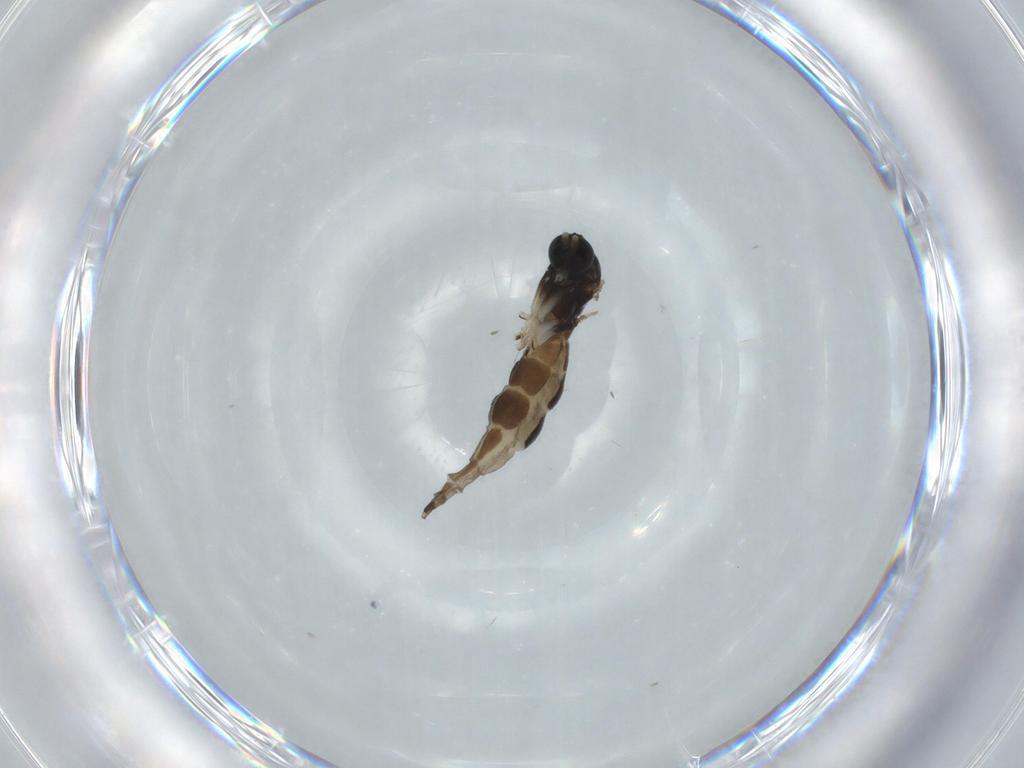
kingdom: Animalia
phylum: Arthropoda
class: Insecta
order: Diptera
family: Sciaridae
